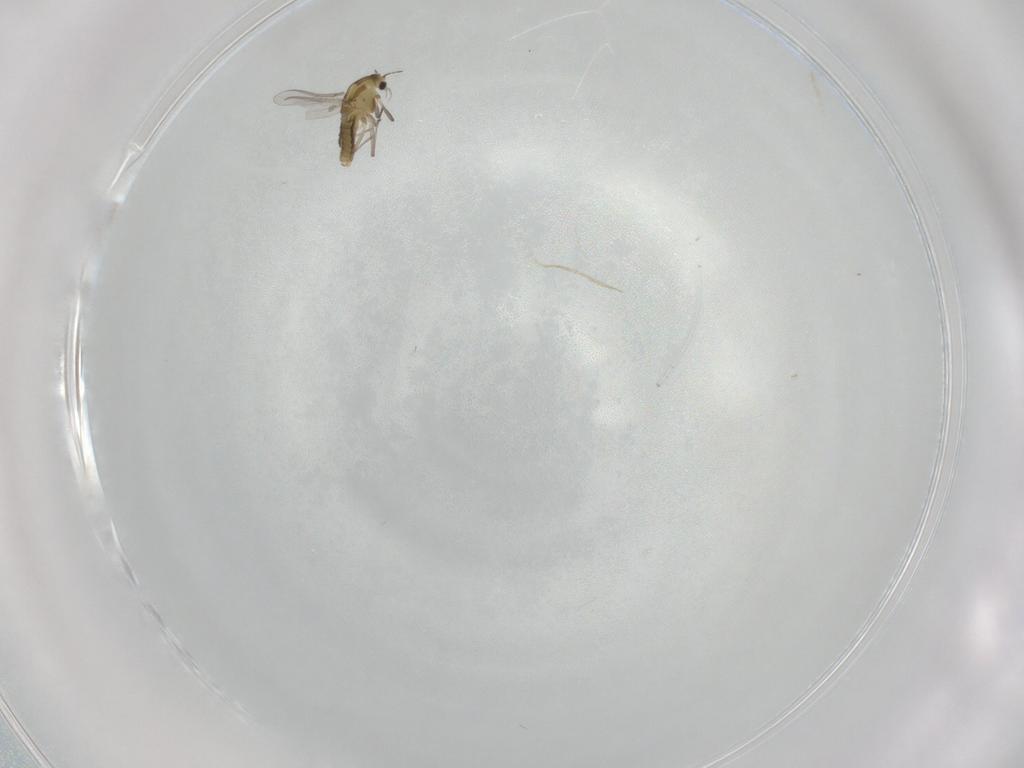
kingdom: Animalia
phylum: Arthropoda
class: Insecta
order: Diptera
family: Chironomidae
